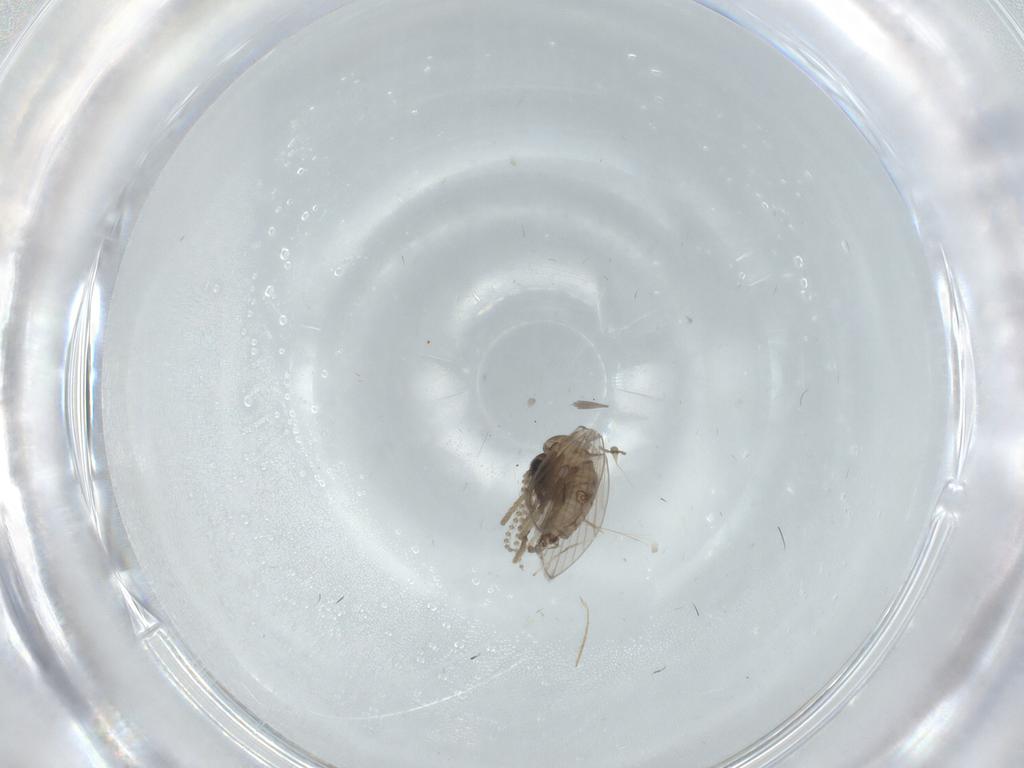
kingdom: Animalia
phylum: Arthropoda
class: Insecta
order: Diptera
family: Psychodidae
